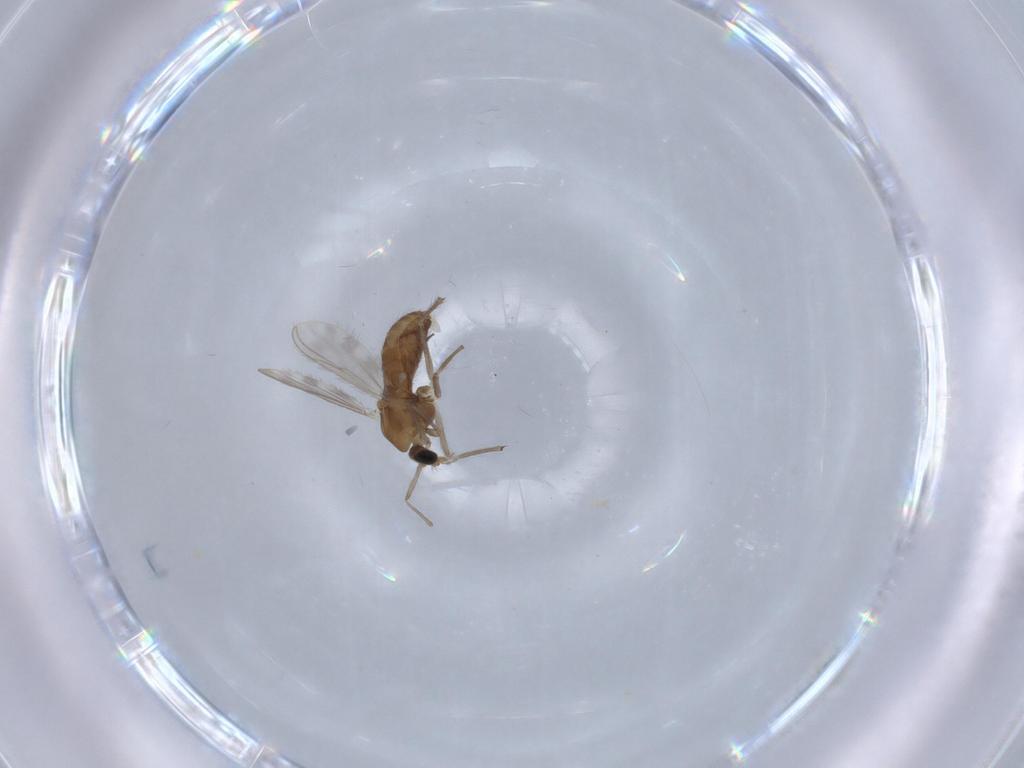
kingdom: Animalia
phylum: Arthropoda
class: Insecta
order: Diptera
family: Chironomidae
